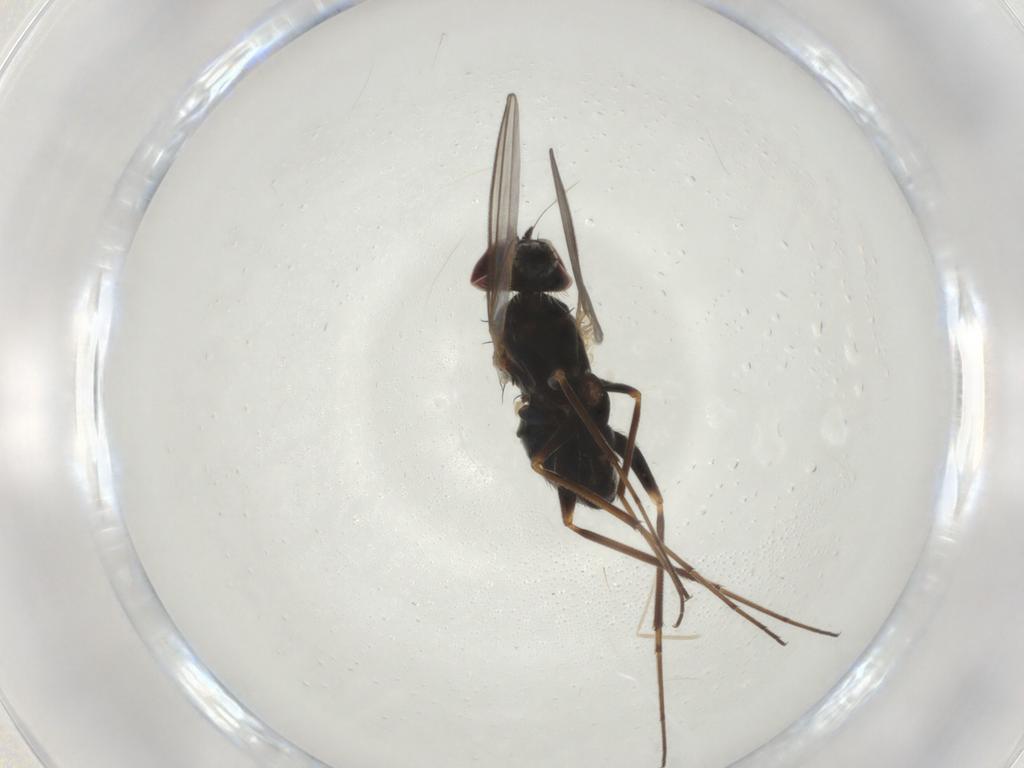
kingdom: Animalia
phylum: Arthropoda
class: Insecta
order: Diptera
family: Dolichopodidae
